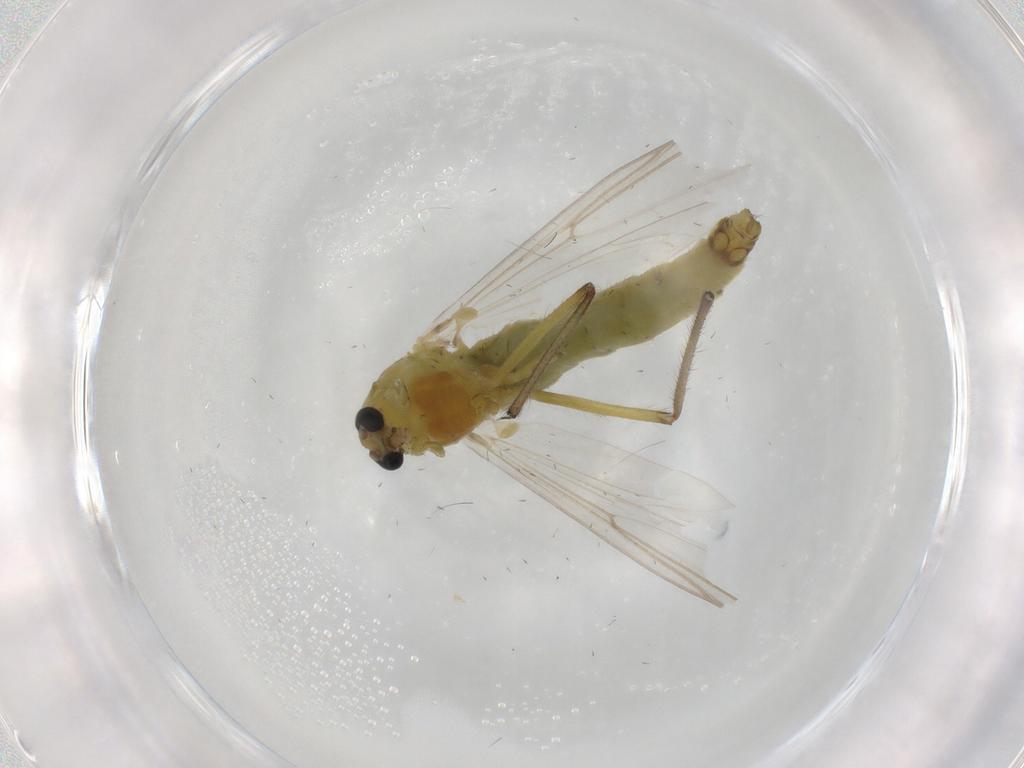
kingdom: Animalia
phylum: Arthropoda
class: Insecta
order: Diptera
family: Chironomidae
